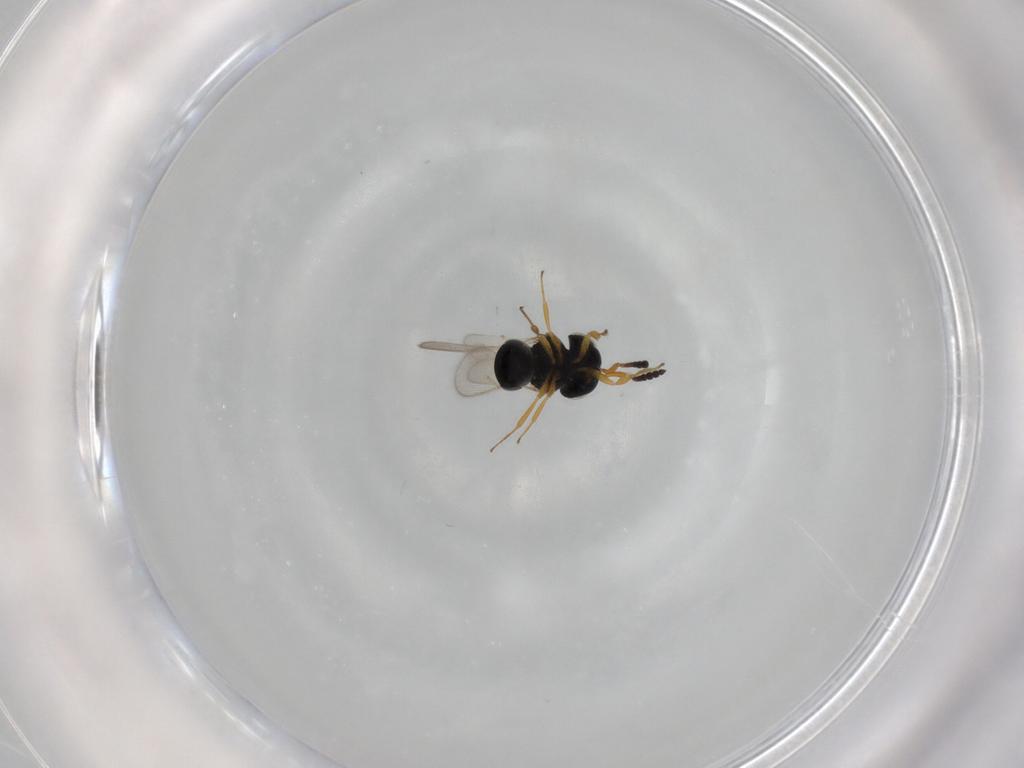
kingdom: Animalia
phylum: Arthropoda
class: Insecta
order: Hymenoptera
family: Scelionidae
